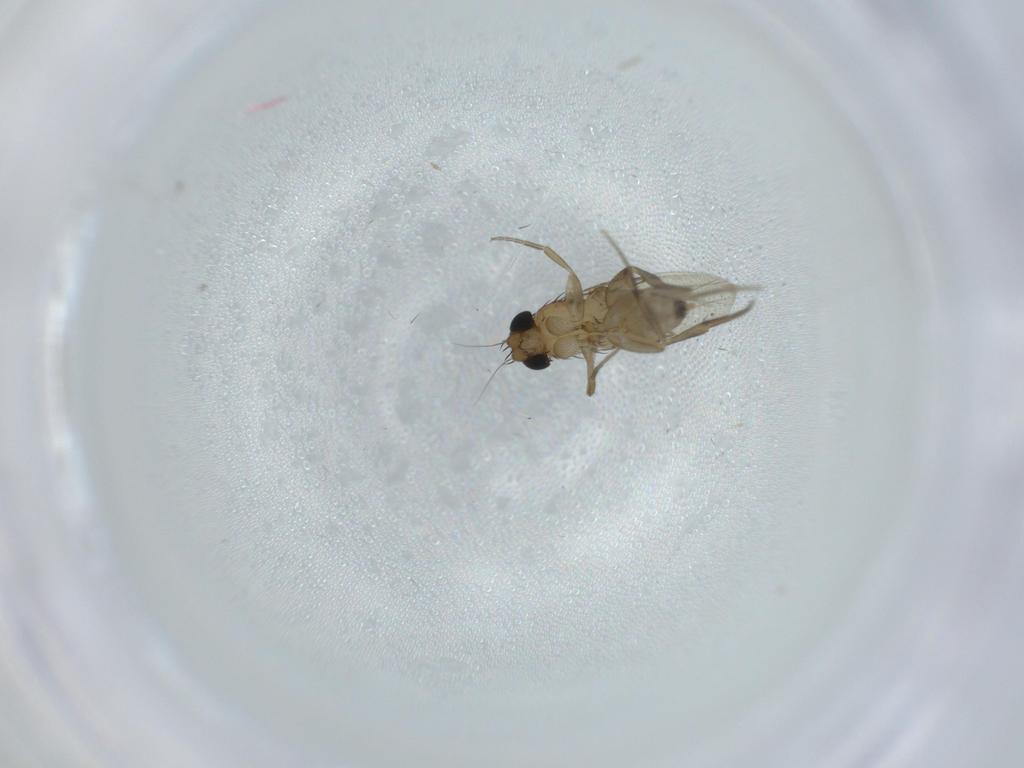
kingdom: Animalia
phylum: Arthropoda
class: Insecta
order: Diptera
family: Phoridae
